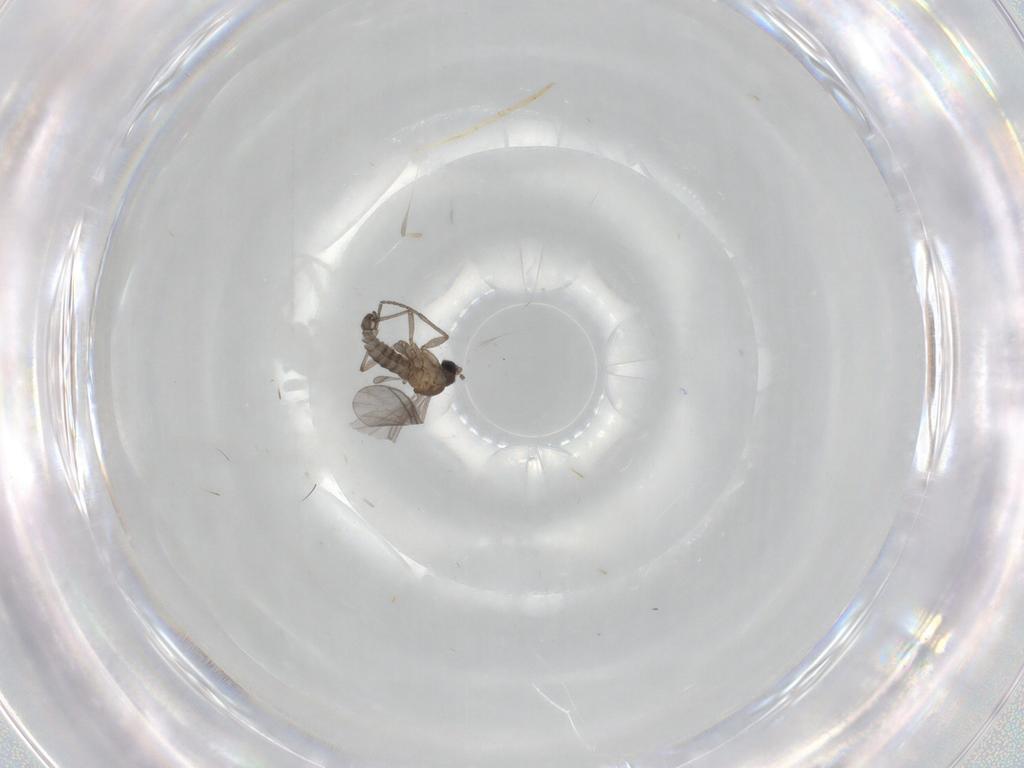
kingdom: Animalia
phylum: Arthropoda
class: Insecta
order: Diptera
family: Sciaridae
